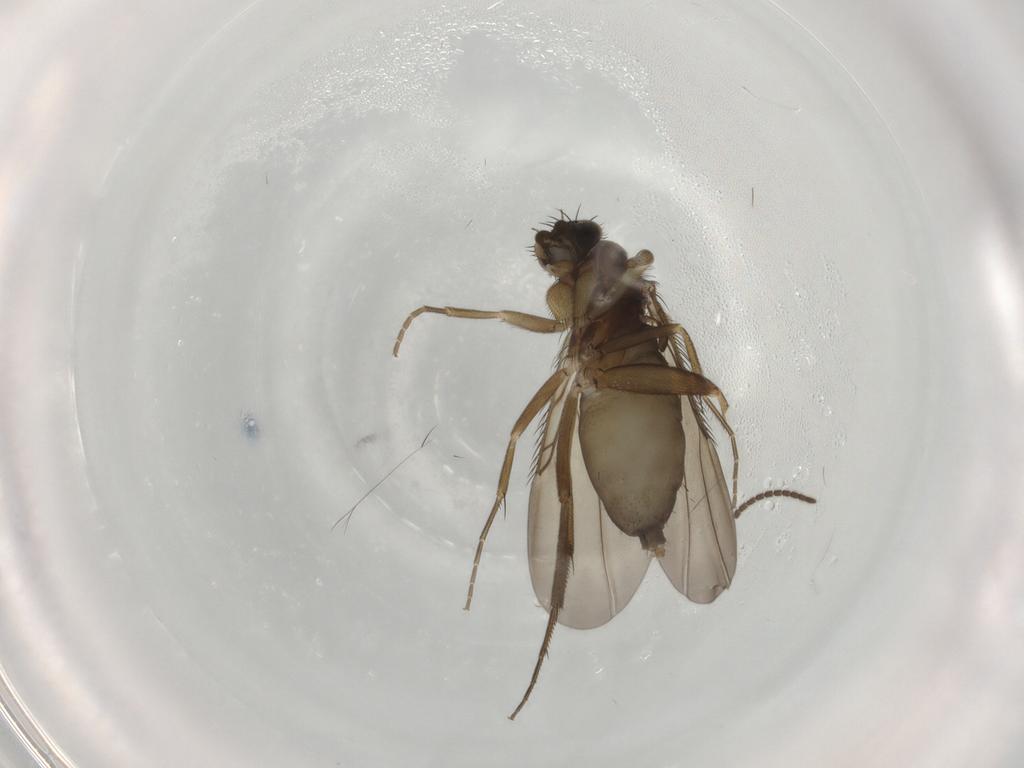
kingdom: Animalia
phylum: Arthropoda
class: Insecta
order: Diptera
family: Phoridae
